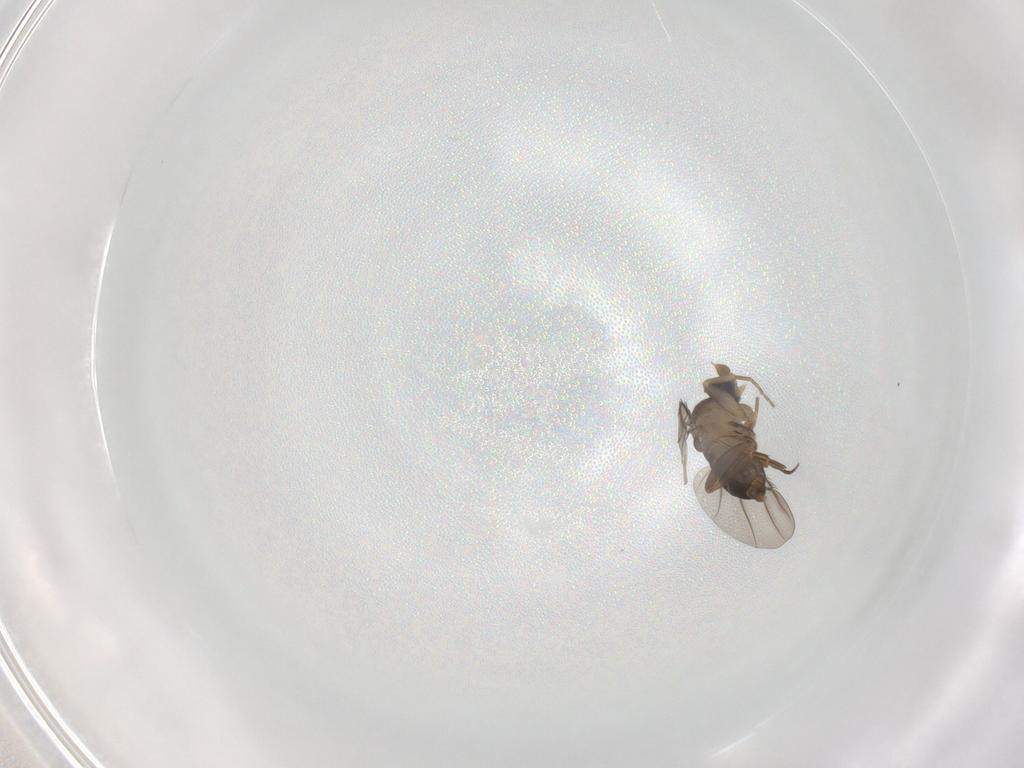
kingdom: Animalia
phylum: Arthropoda
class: Insecta
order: Diptera
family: Phoridae
